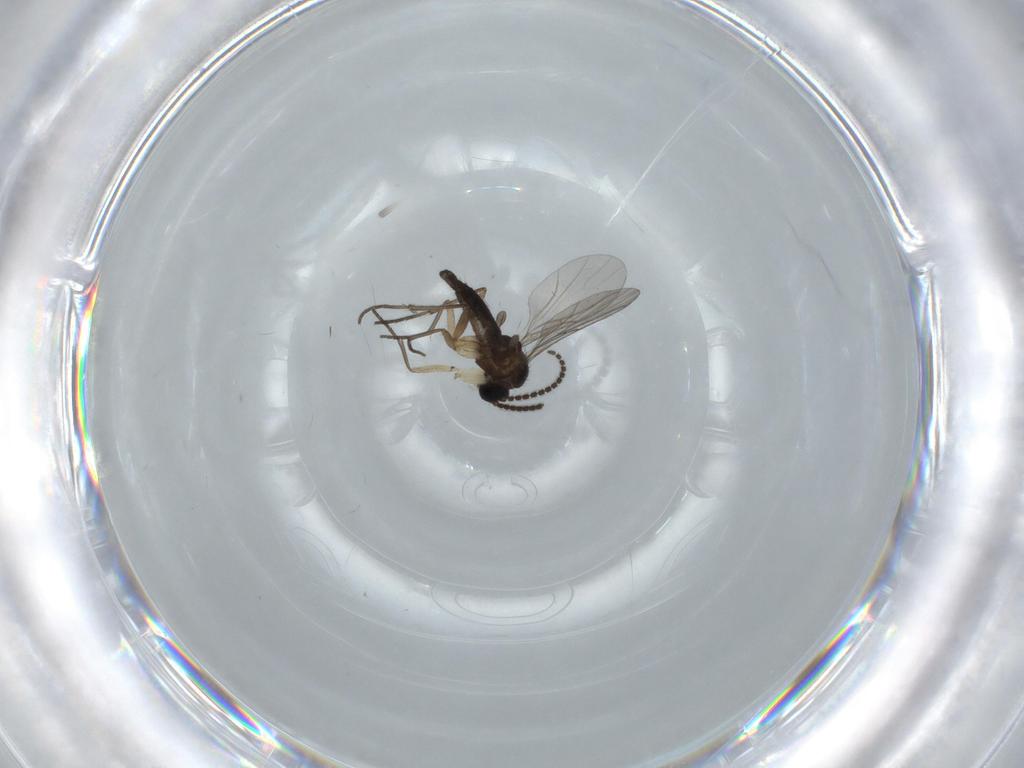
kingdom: Animalia
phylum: Arthropoda
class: Insecta
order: Diptera
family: Sciaridae
